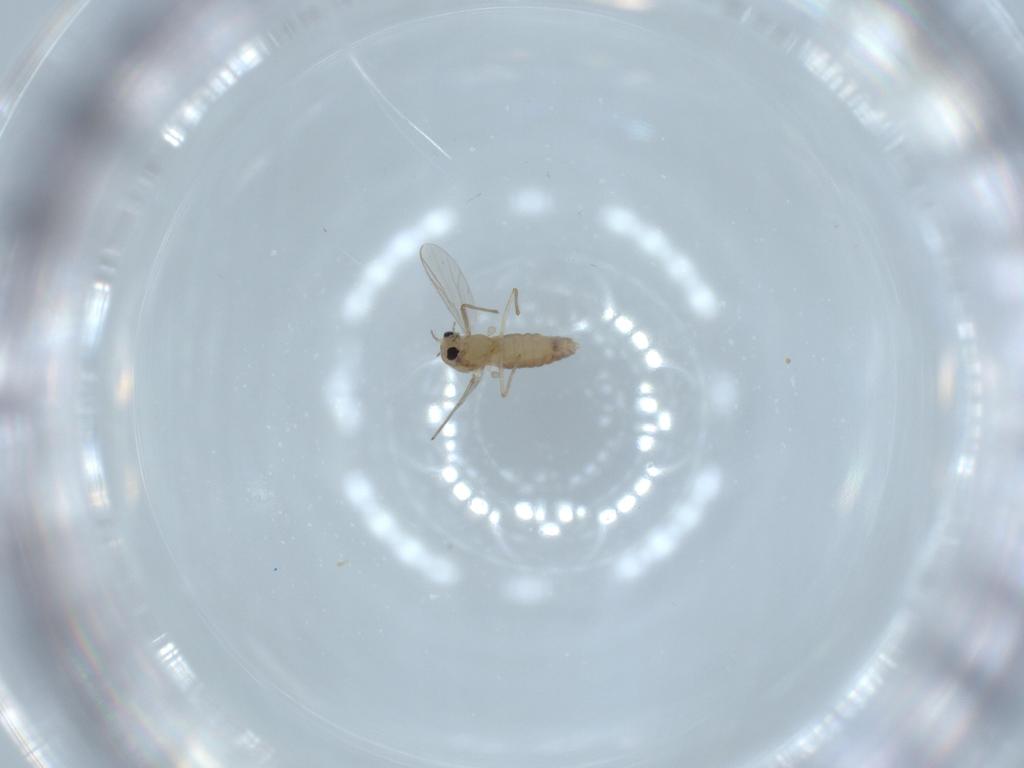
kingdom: Animalia
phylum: Arthropoda
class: Insecta
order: Diptera
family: Chironomidae
